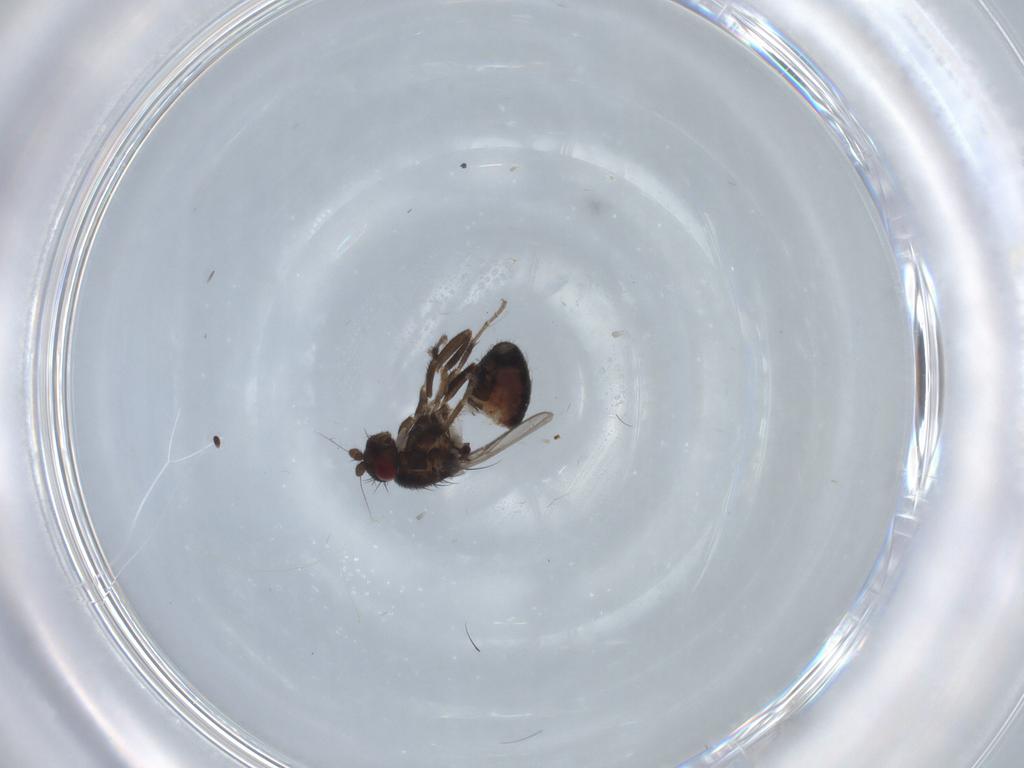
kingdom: Animalia
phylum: Arthropoda
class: Insecta
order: Diptera
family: Sphaeroceridae
